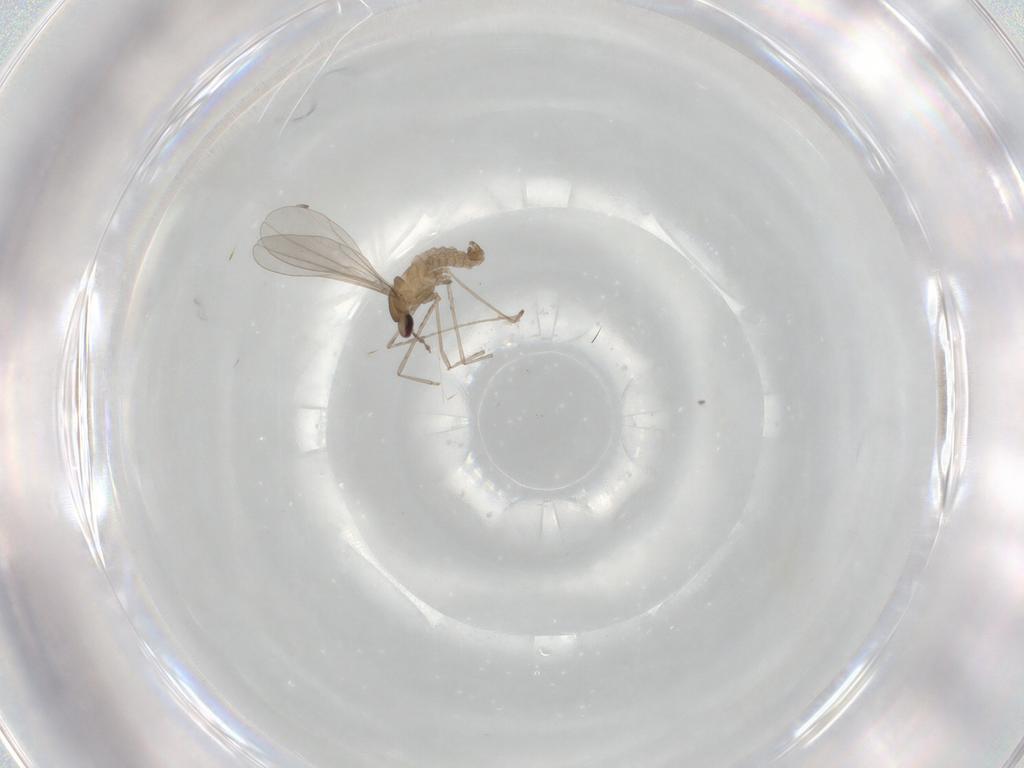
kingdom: Animalia
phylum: Arthropoda
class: Insecta
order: Diptera
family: Cecidomyiidae
